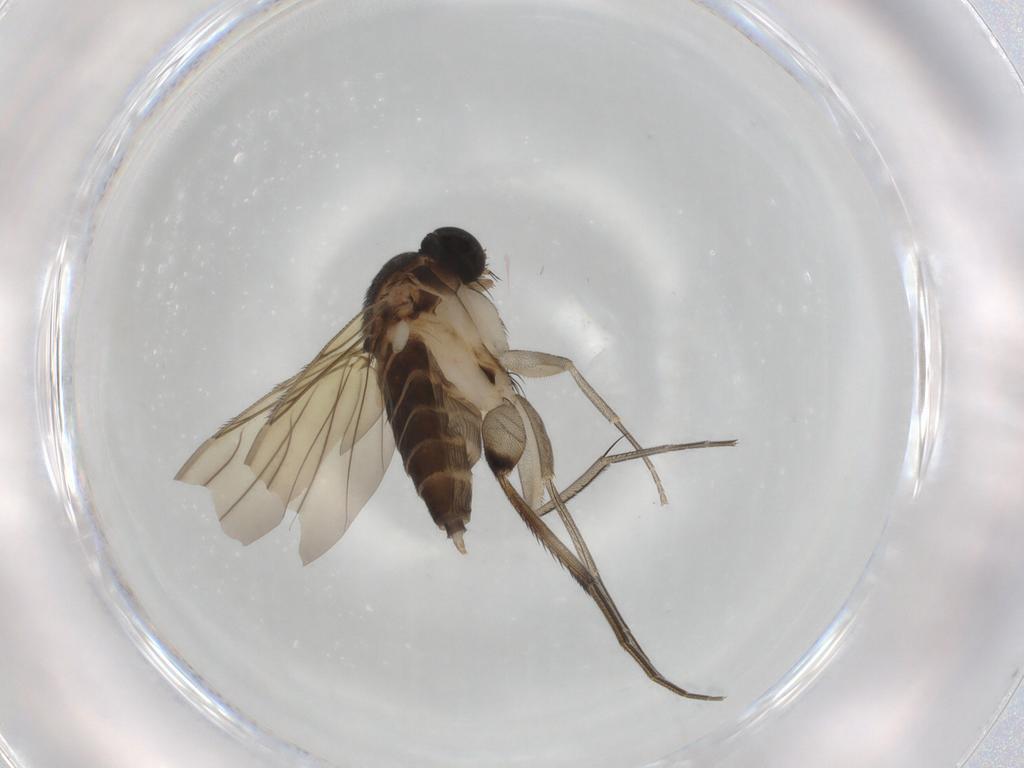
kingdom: Animalia
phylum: Arthropoda
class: Insecta
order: Diptera
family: Chironomidae
